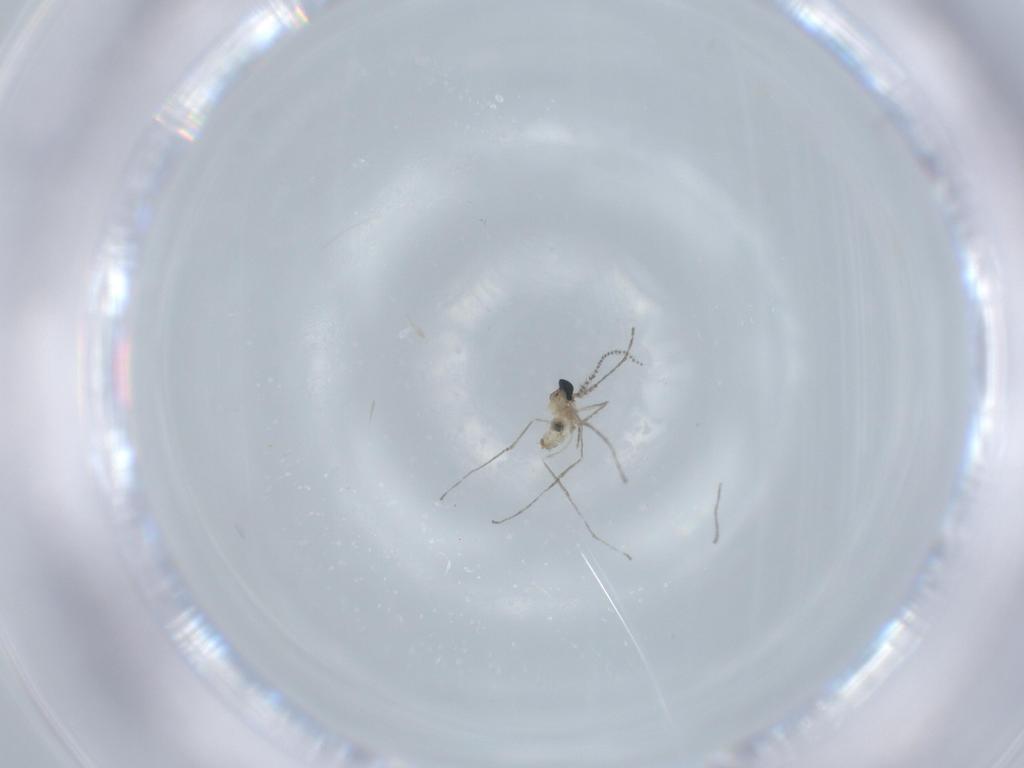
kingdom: Animalia
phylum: Arthropoda
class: Insecta
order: Diptera
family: Cecidomyiidae
